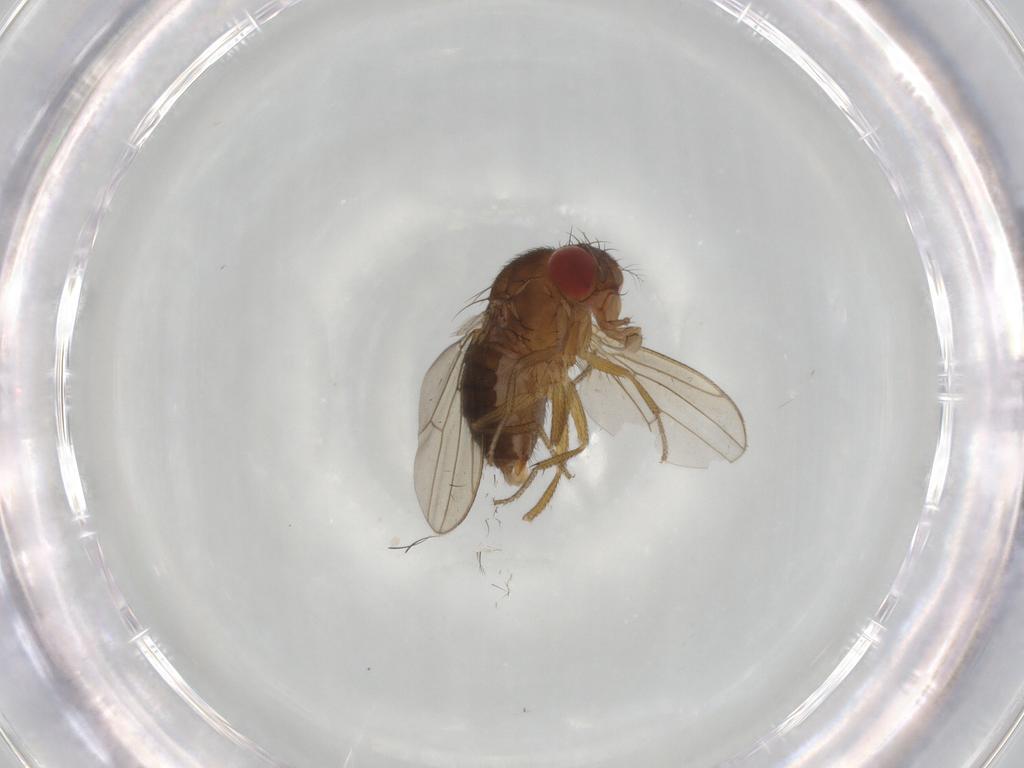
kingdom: Animalia
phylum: Arthropoda
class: Insecta
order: Diptera
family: Drosophilidae
